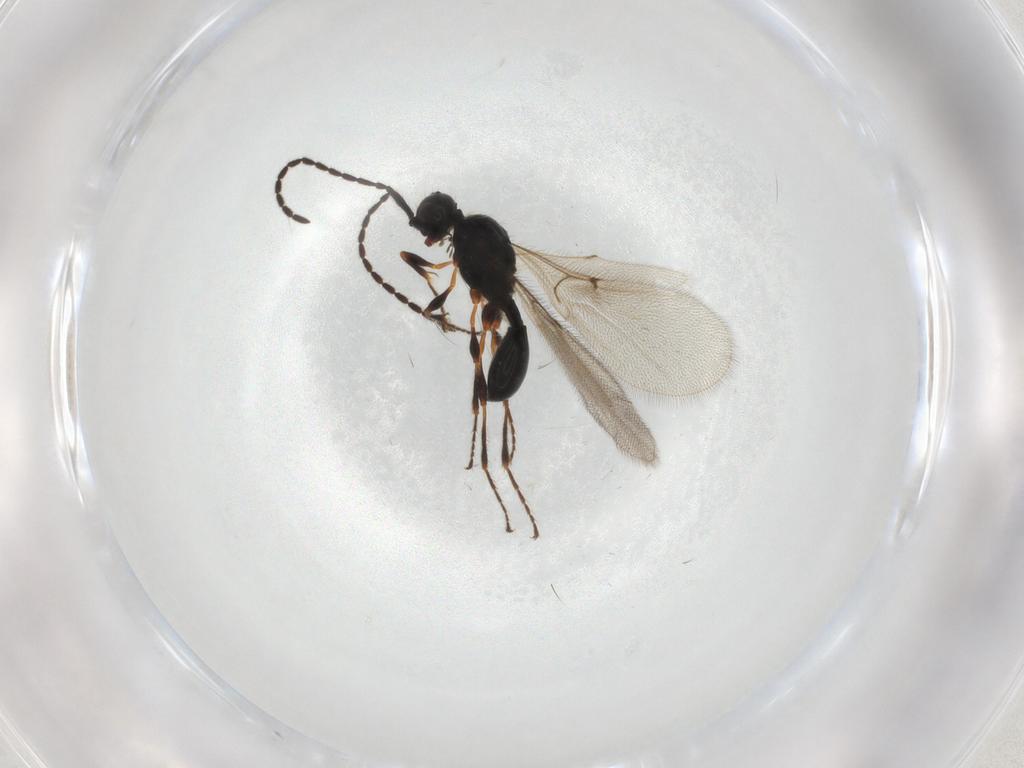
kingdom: Animalia
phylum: Arthropoda
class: Insecta
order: Hymenoptera
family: Diapriidae
